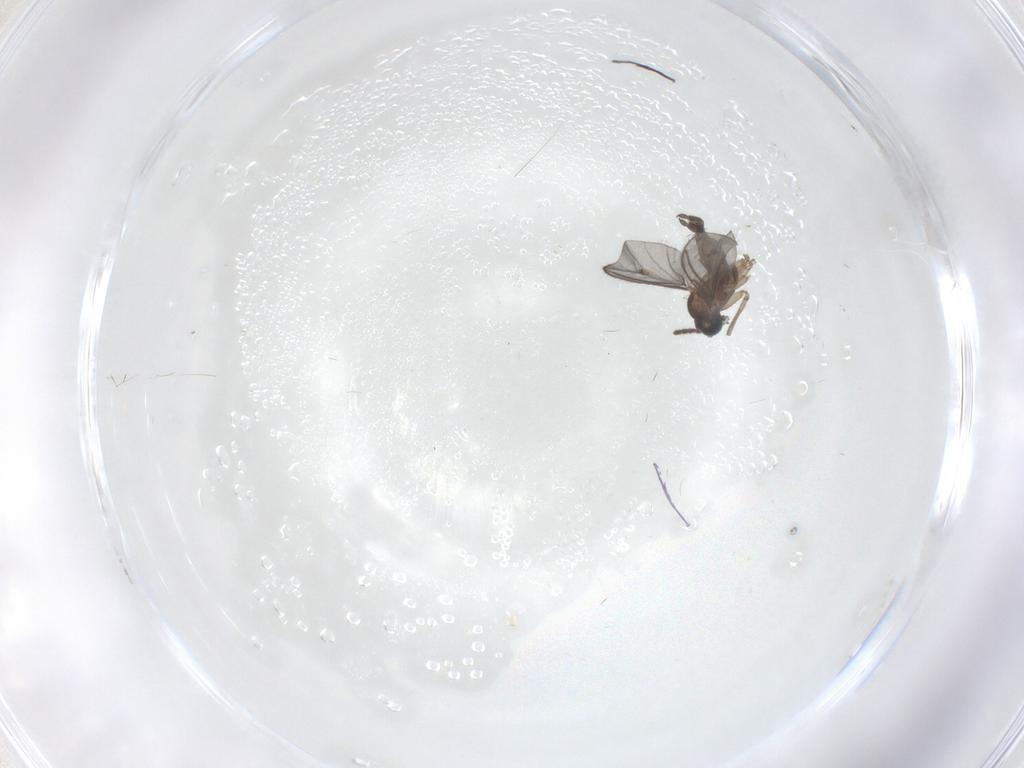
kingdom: Animalia
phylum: Arthropoda
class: Insecta
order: Diptera
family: Sciaridae
